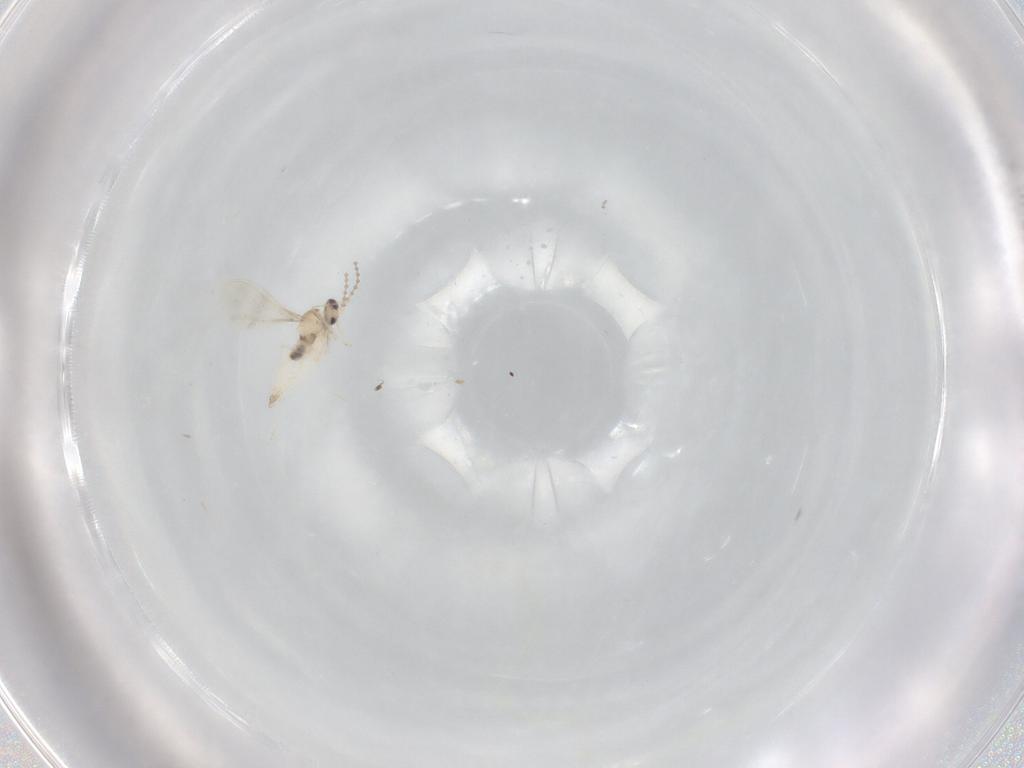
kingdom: Animalia
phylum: Arthropoda
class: Insecta
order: Diptera
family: Cecidomyiidae
